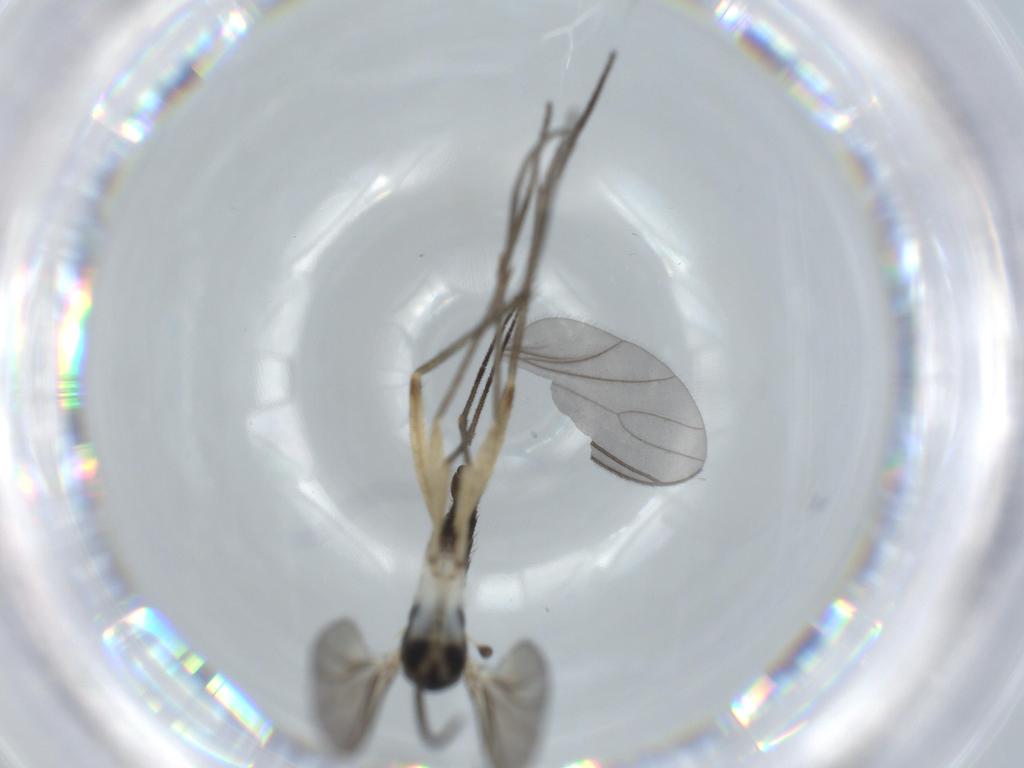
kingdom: Animalia
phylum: Arthropoda
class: Insecta
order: Diptera
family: Sciaridae
